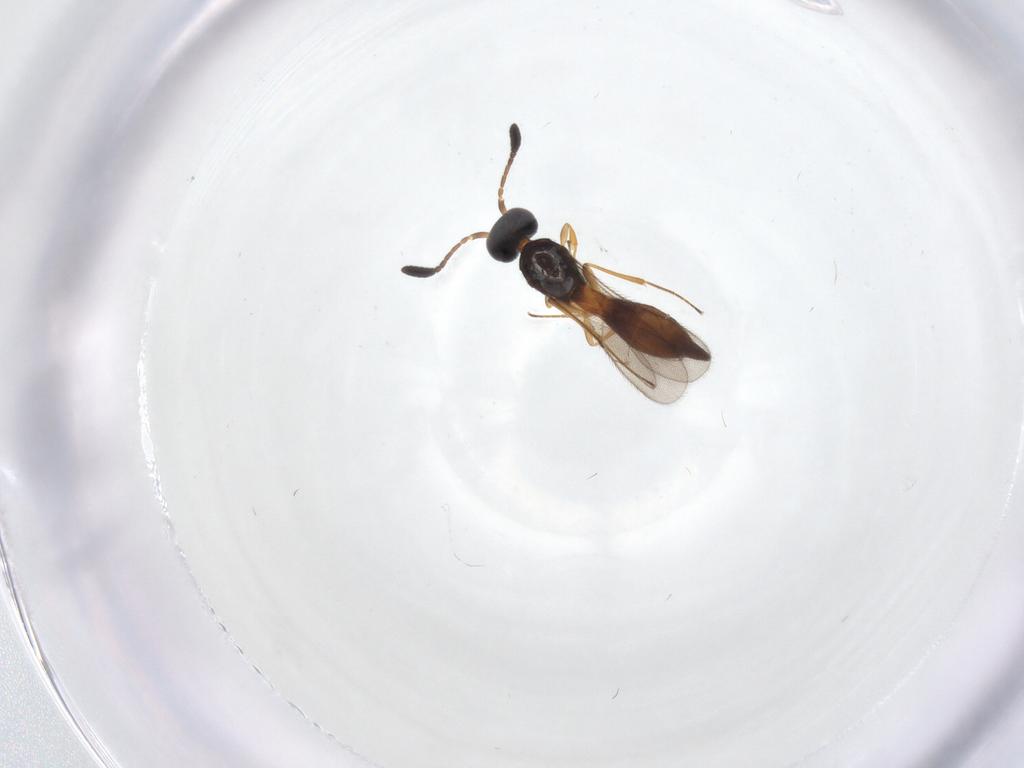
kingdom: Animalia
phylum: Arthropoda
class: Insecta
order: Hymenoptera
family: Scelionidae
